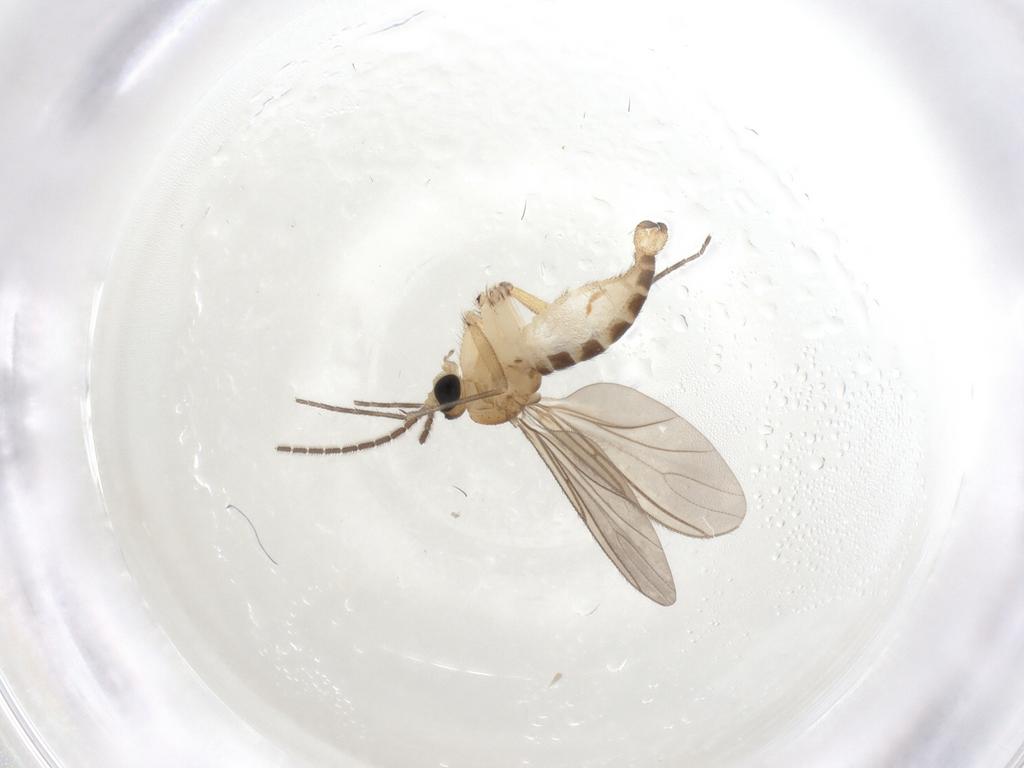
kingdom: Animalia
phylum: Arthropoda
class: Insecta
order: Diptera
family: Sciaridae
